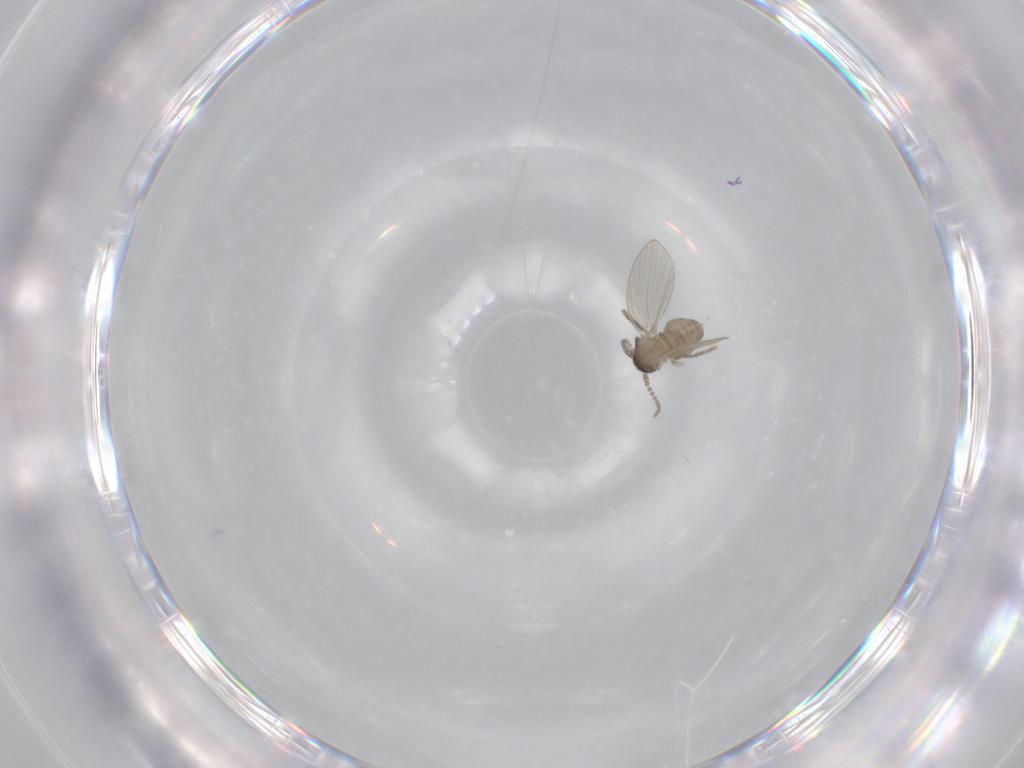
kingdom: Animalia
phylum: Arthropoda
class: Insecta
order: Diptera
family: Psychodidae
